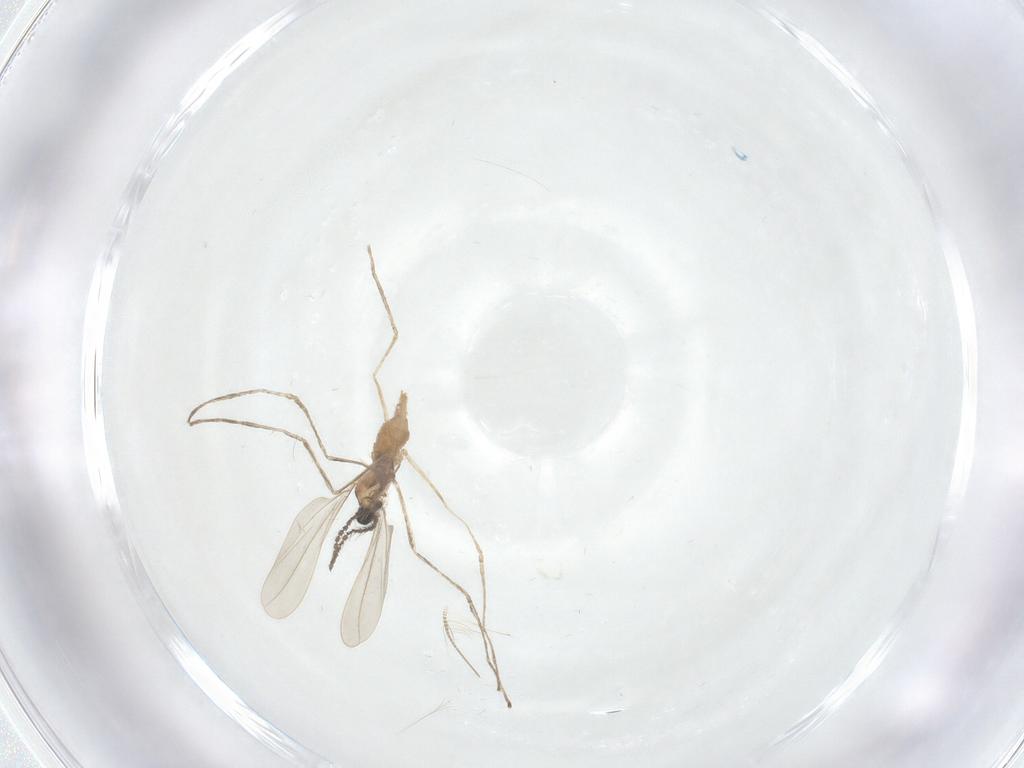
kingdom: Animalia
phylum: Arthropoda
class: Insecta
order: Diptera
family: Cecidomyiidae
